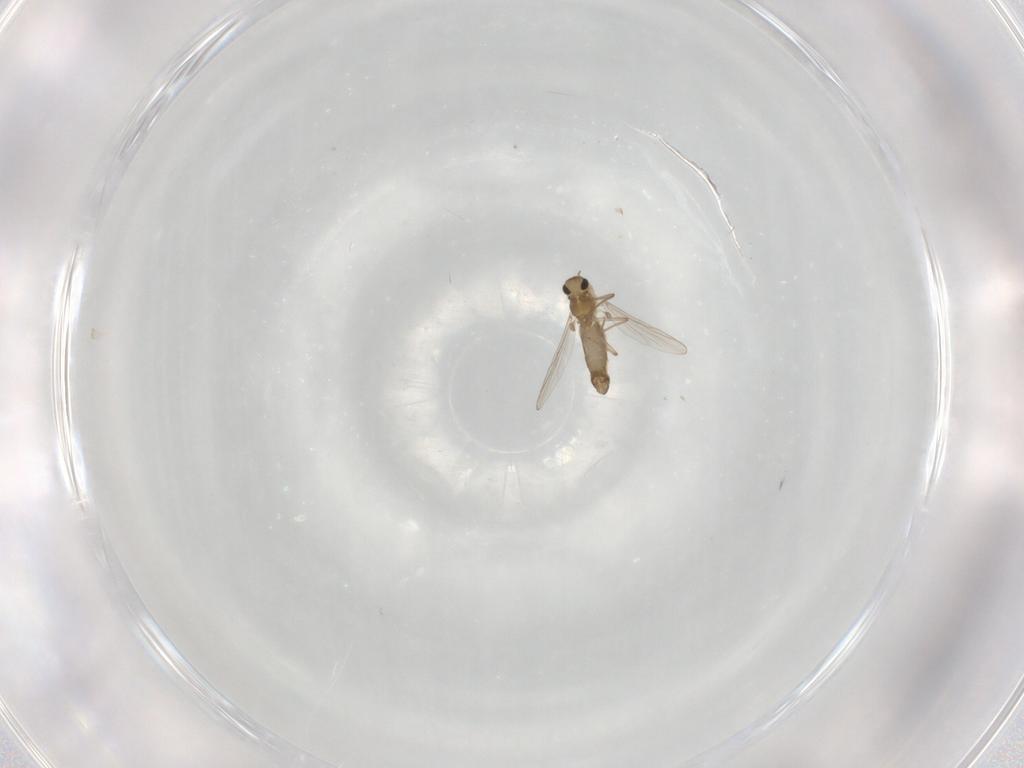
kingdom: Animalia
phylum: Arthropoda
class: Insecta
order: Diptera
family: Chironomidae
